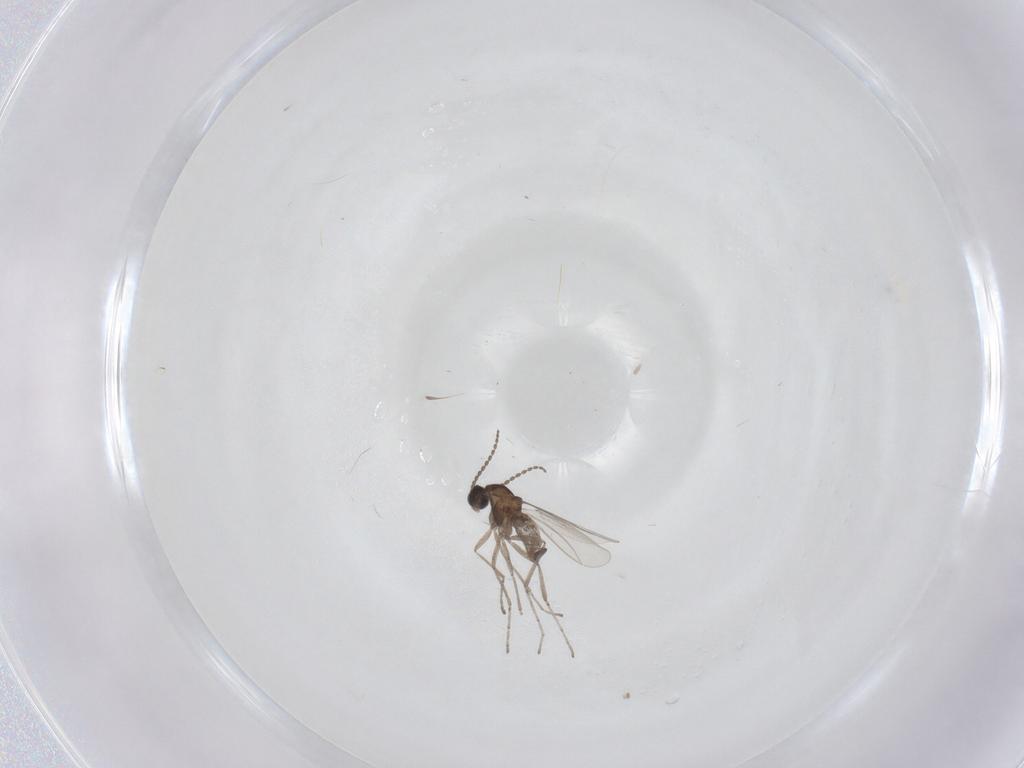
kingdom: Animalia
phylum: Arthropoda
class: Insecta
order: Diptera
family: Cecidomyiidae
